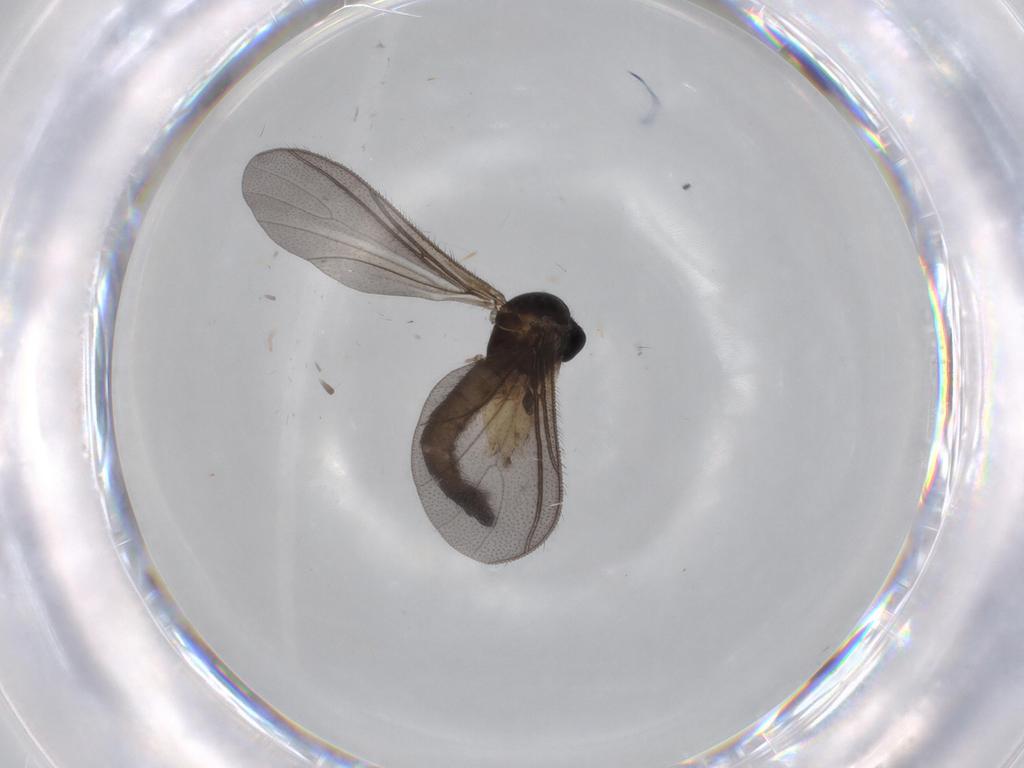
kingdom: Animalia
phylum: Arthropoda
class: Insecta
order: Diptera
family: Sciaridae
